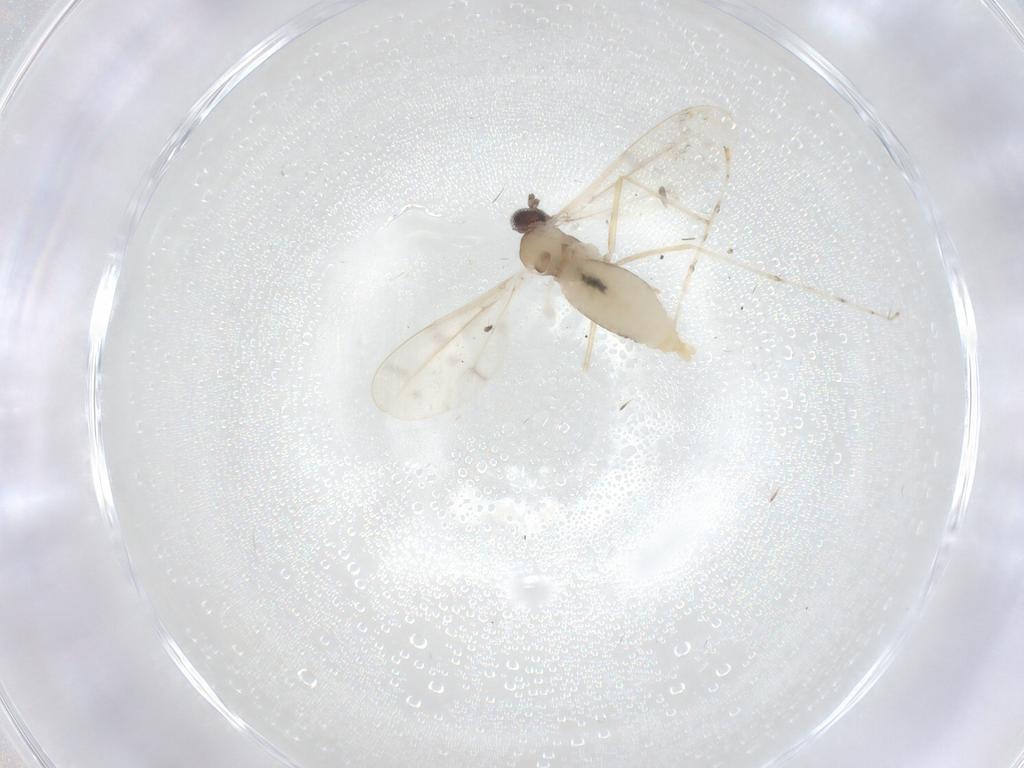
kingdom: Animalia
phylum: Arthropoda
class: Insecta
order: Diptera
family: Cecidomyiidae
